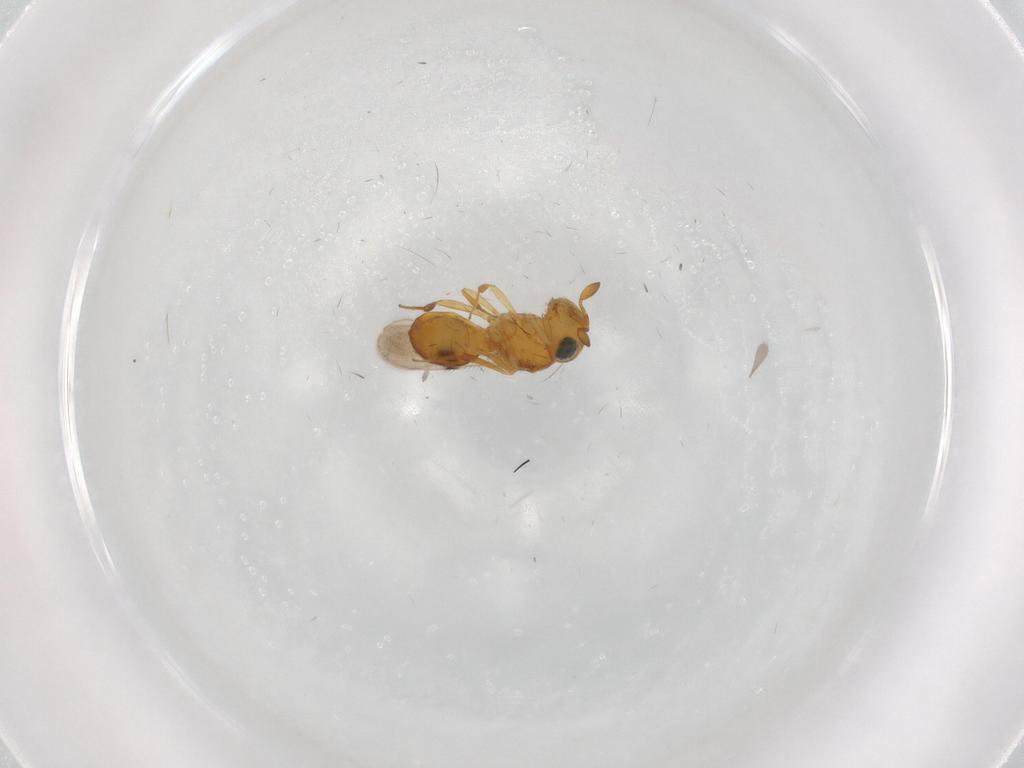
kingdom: Animalia
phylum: Arthropoda
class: Insecta
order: Hymenoptera
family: Scelionidae
